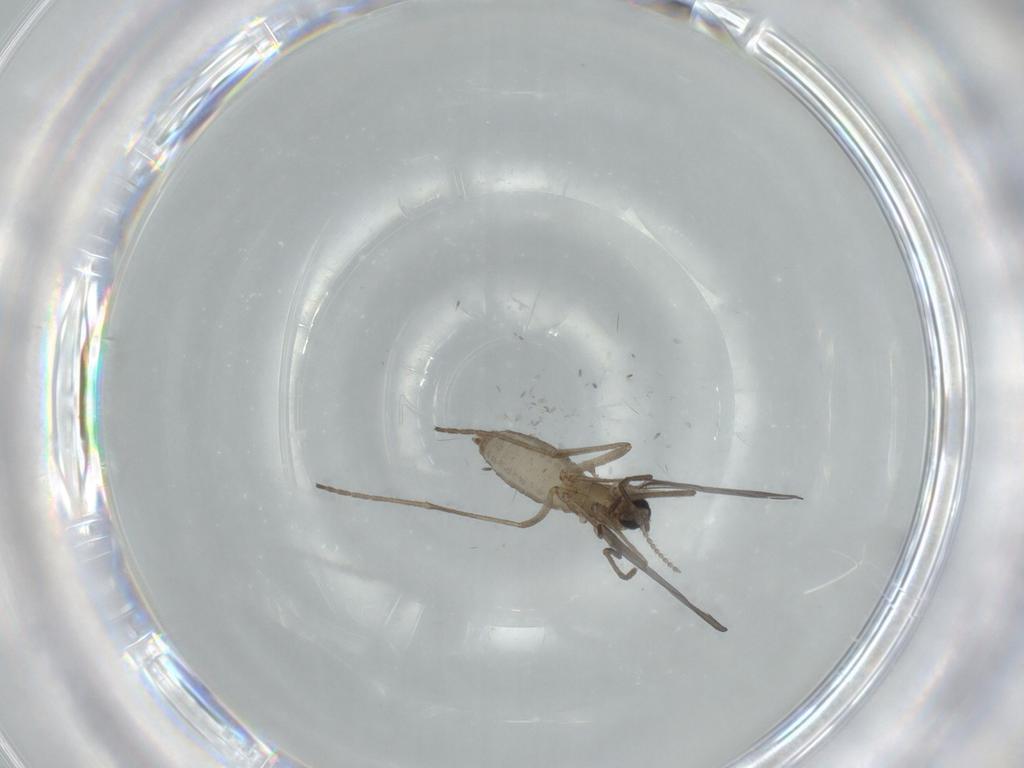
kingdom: Animalia
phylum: Arthropoda
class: Insecta
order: Diptera
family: Cecidomyiidae
